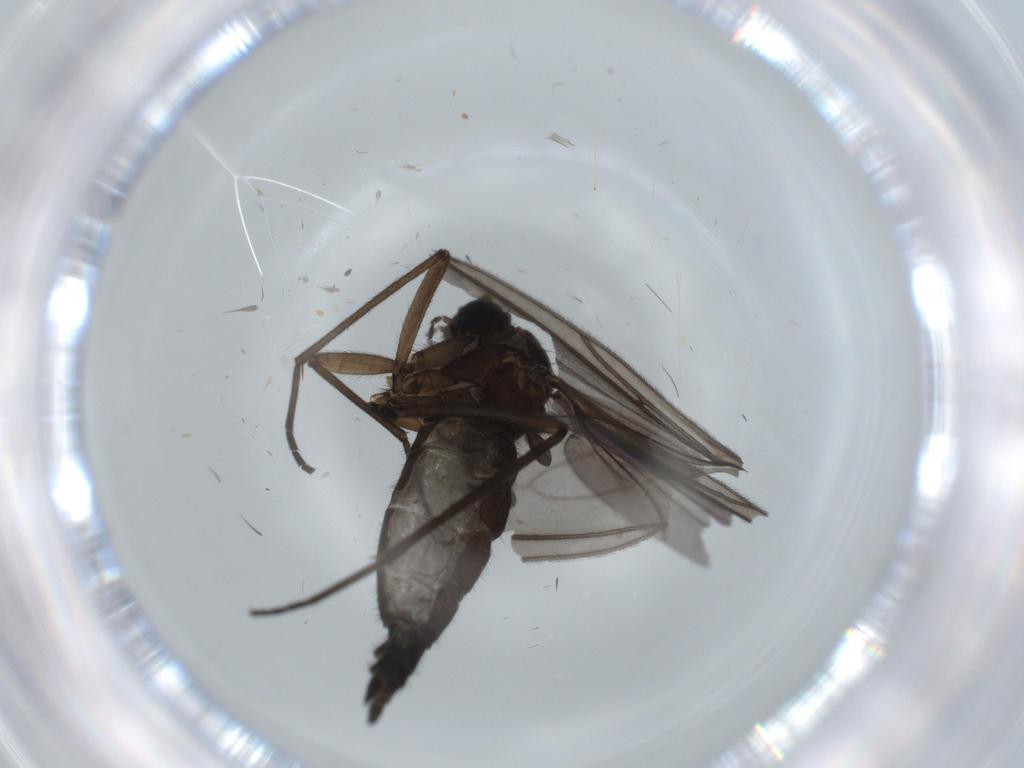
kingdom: Animalia
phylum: Arthropoda
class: Insecta
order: Diptera
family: Sciaridae
